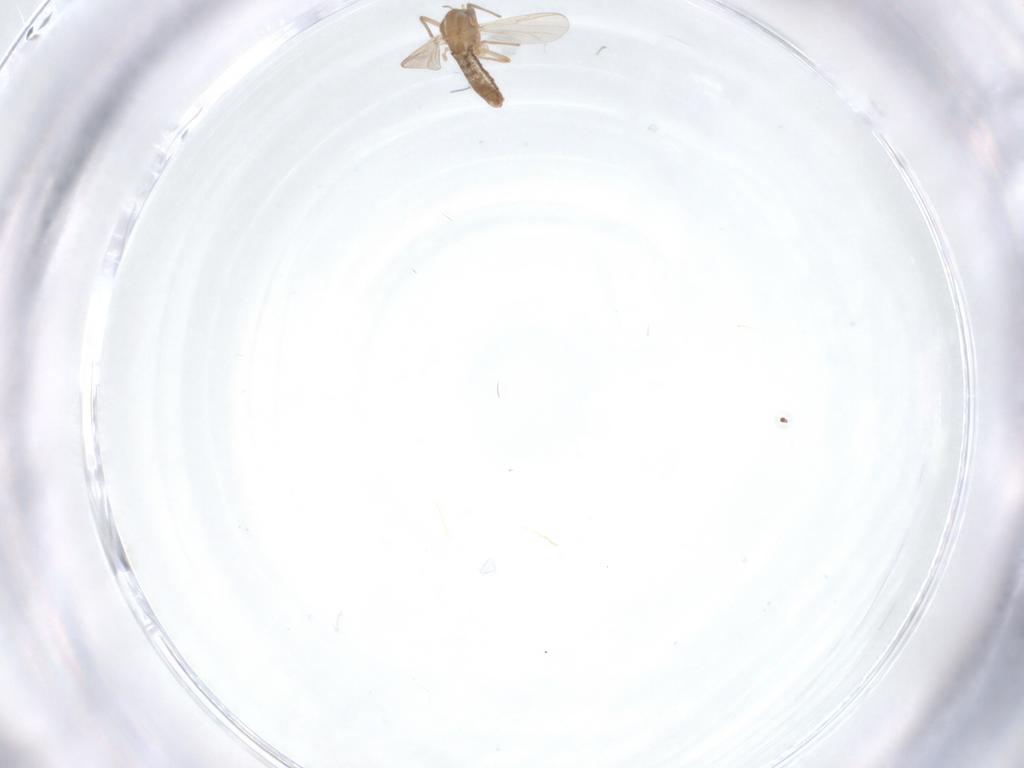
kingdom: Animalia
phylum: Arthropoda
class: Insecta
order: Diptera
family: Chironomidae
